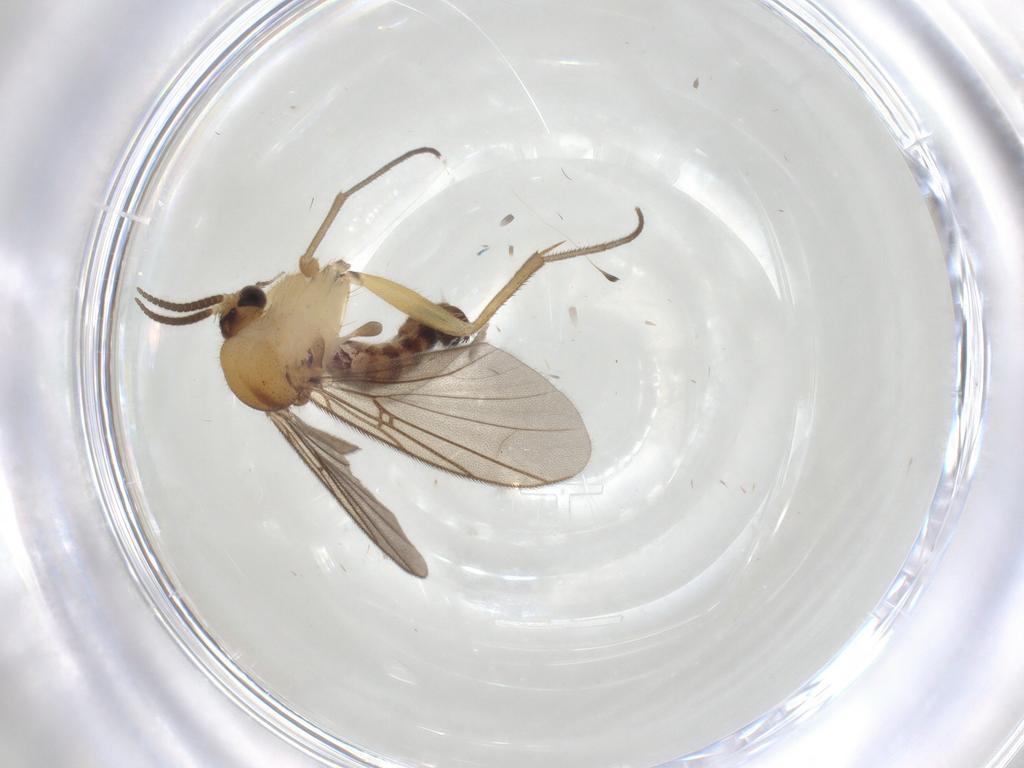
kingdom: Animalia
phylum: Arthropoda
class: Insecta
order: Diptera
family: Mycetophilidae
